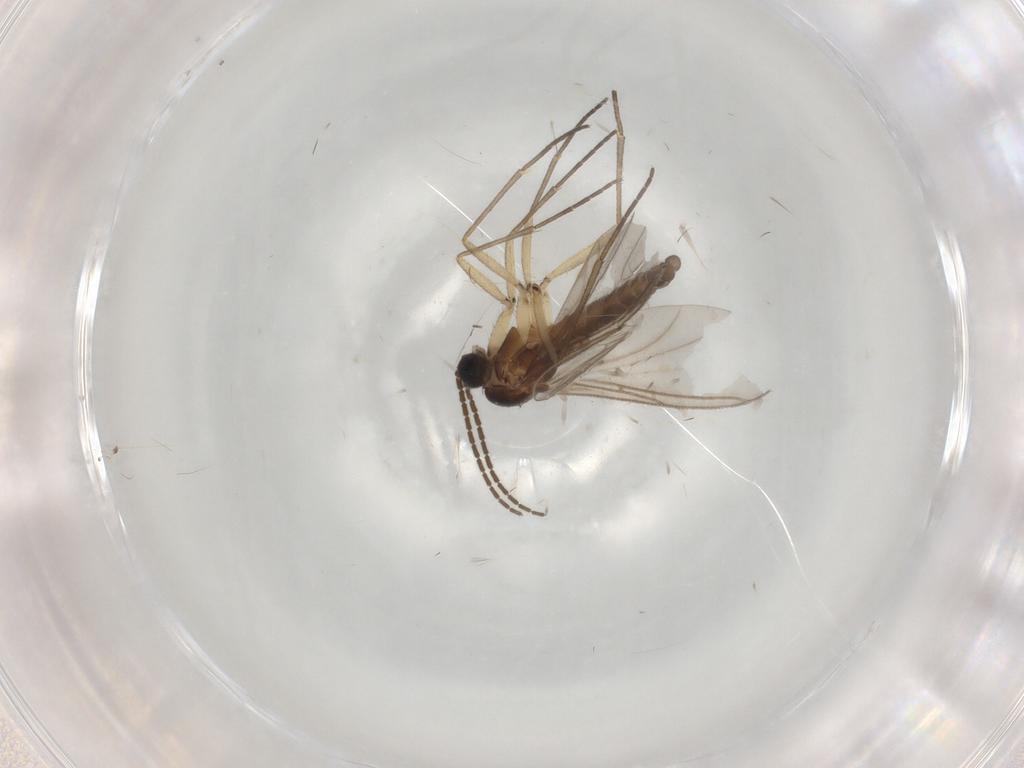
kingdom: Animalia
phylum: Arthropoda
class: Insecta
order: Diptera
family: Sciaridae
